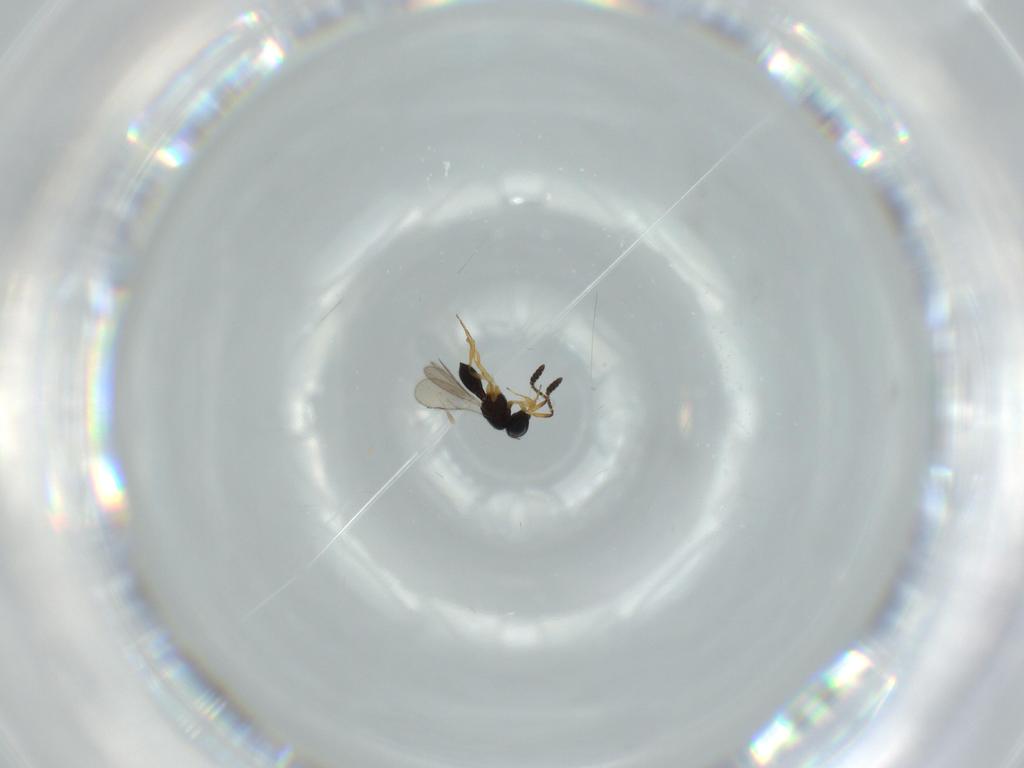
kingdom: Animalia
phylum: Arthropoda
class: Insecta
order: Hymenoptera
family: Scelionidae
